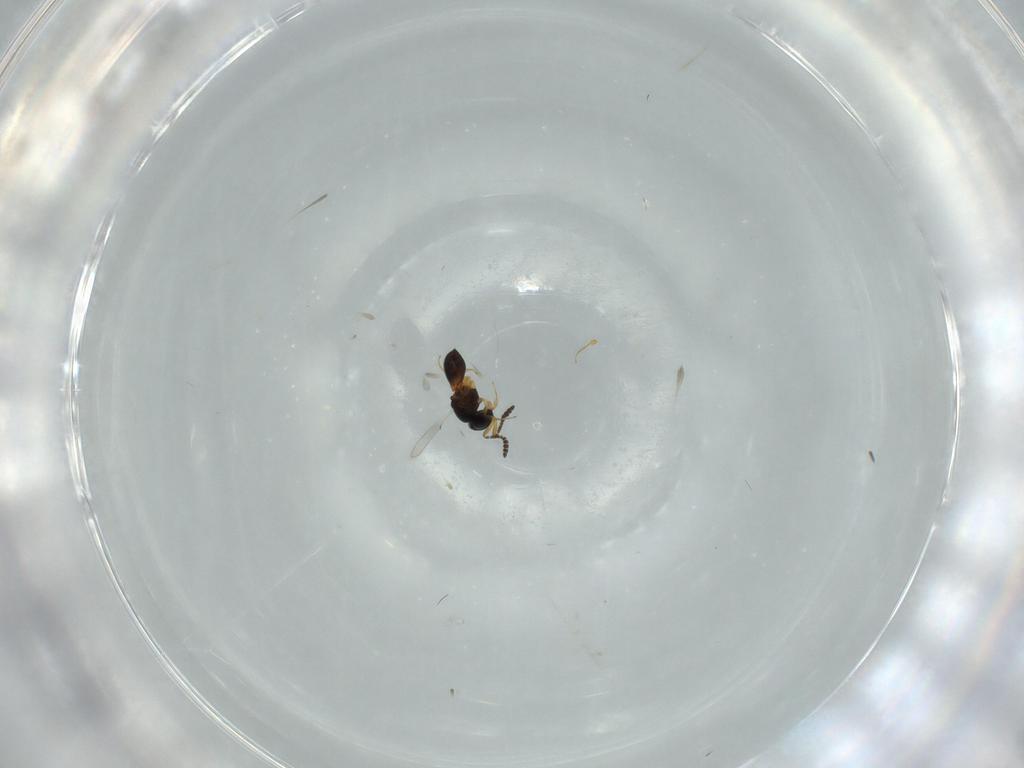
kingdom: Animalia
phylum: Arthropoda
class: Insecta
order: Hymenoptera
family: Scelionidae
